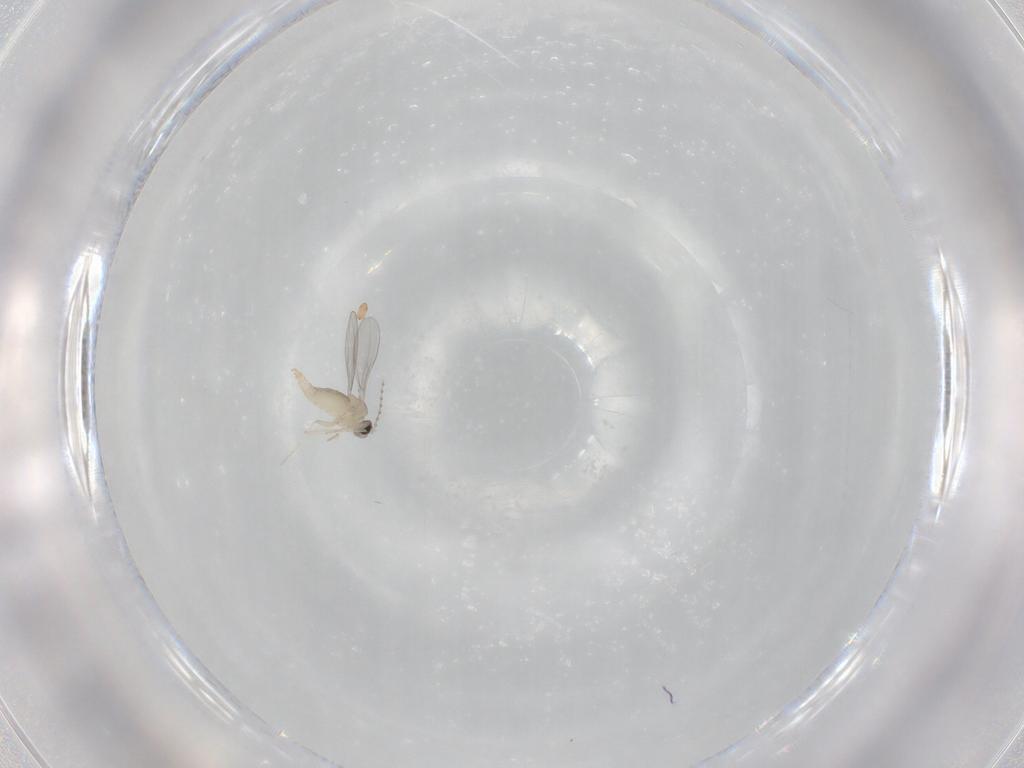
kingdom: Animalia
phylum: Arthropoda
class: Insecta
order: Diptera
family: Cecidomyiidae
